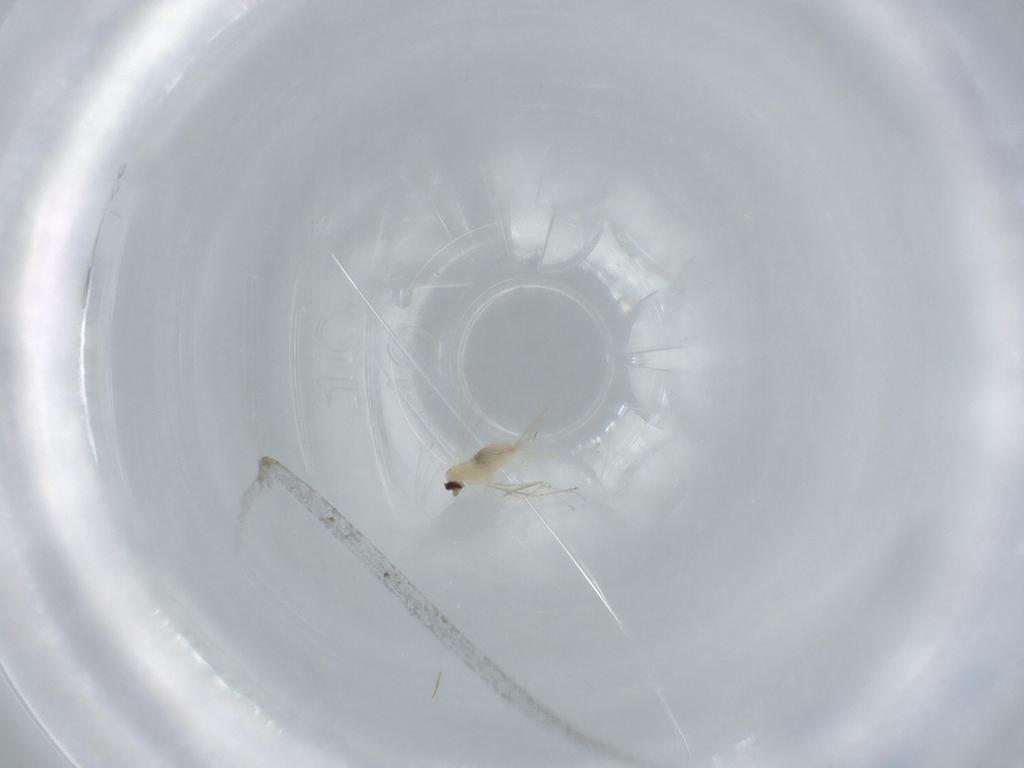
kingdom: Animalia
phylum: Arthropoda
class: Insecta
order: Diptera
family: Cecidomyiidae
